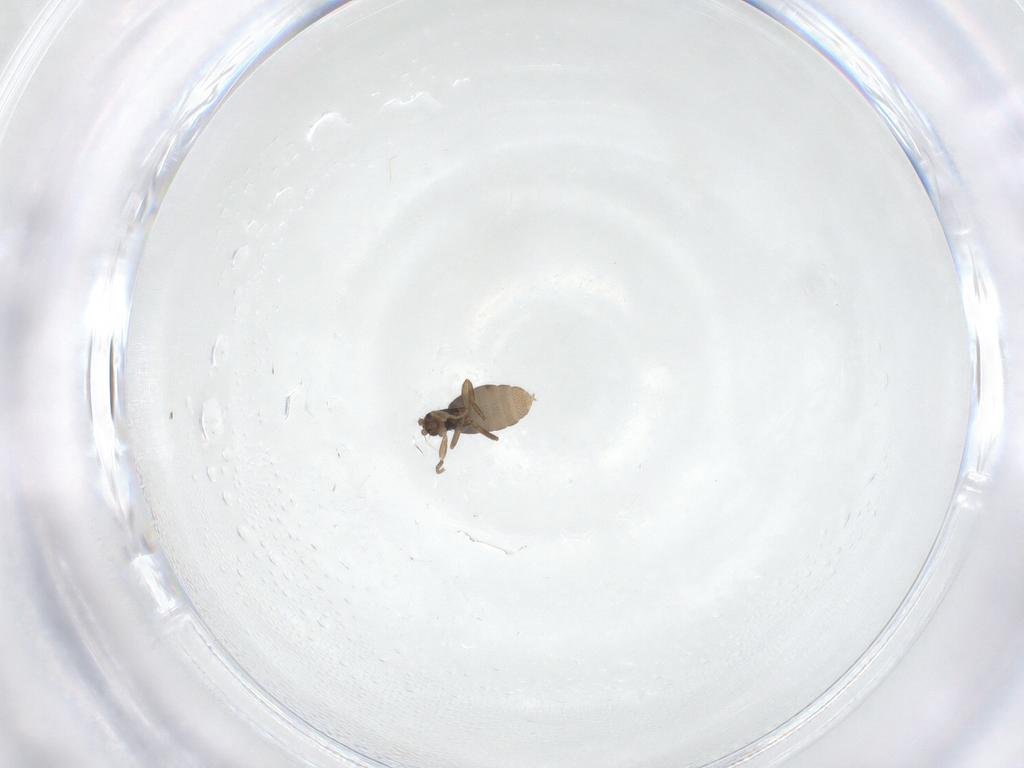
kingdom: Animalia
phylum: Arthropoda
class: Insecta
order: Diptera
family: Phoridae
